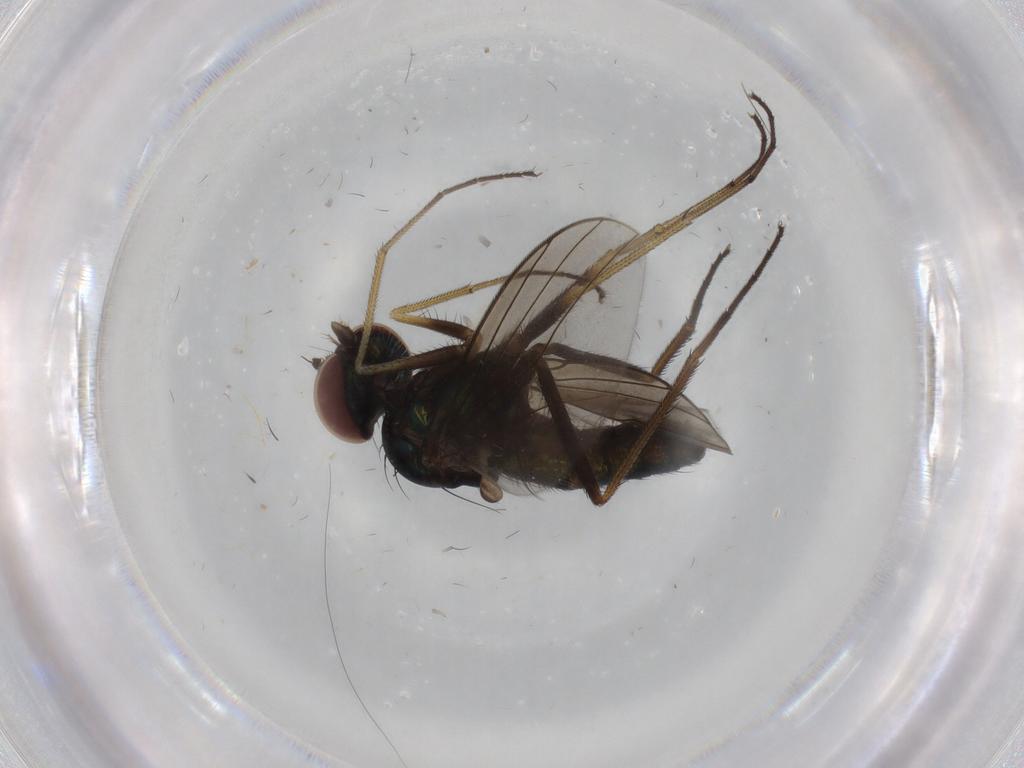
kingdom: Animalia
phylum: Arthropoda
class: Insecta
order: Diptera
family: Dolichopodidae
